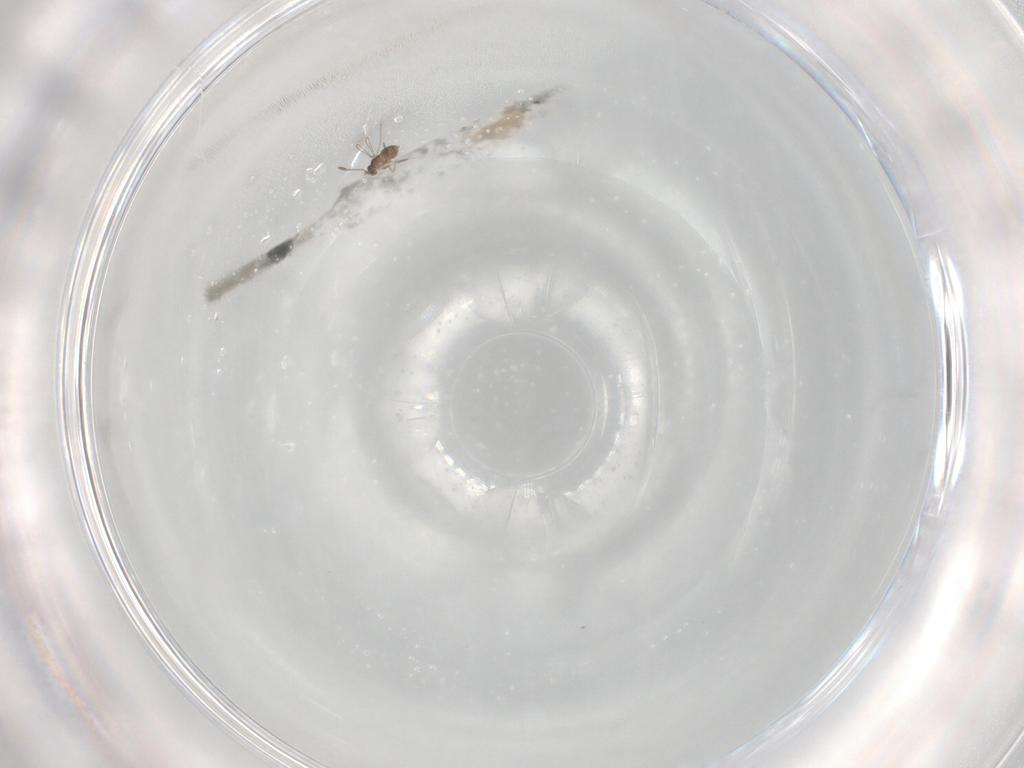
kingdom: Animalia
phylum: Arthropoda
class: Insecta
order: Hymenoptera
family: Mymaridae
